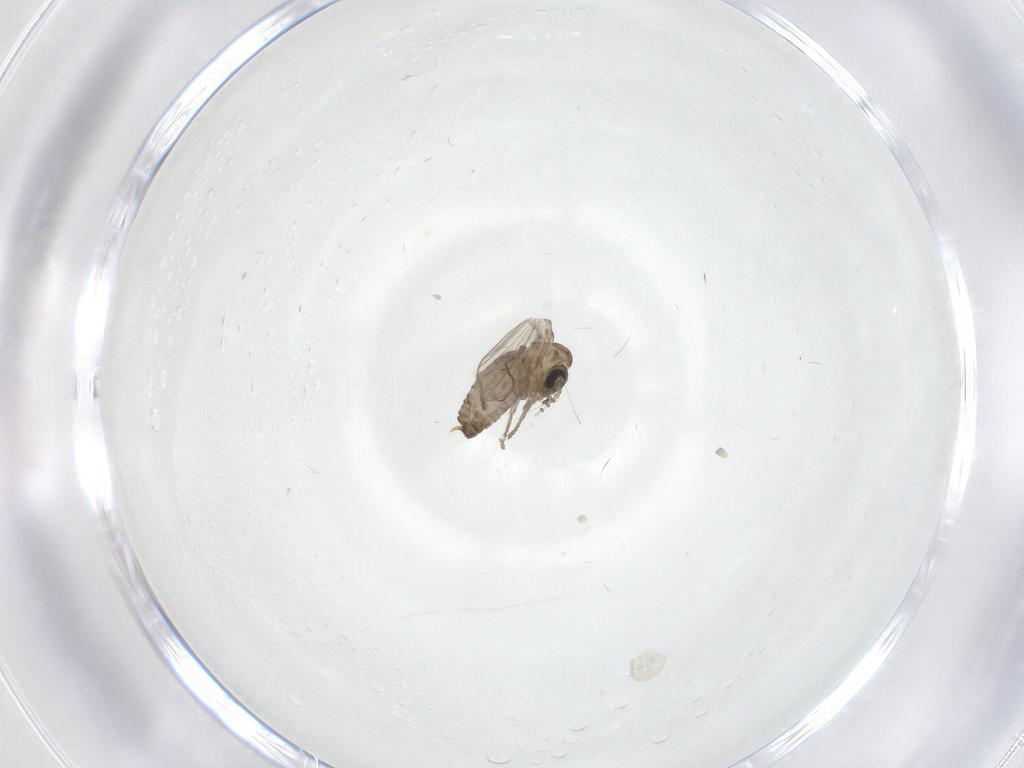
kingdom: Animalia
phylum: Arthropoda
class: Insecta
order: Diptera
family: Psychodidae
